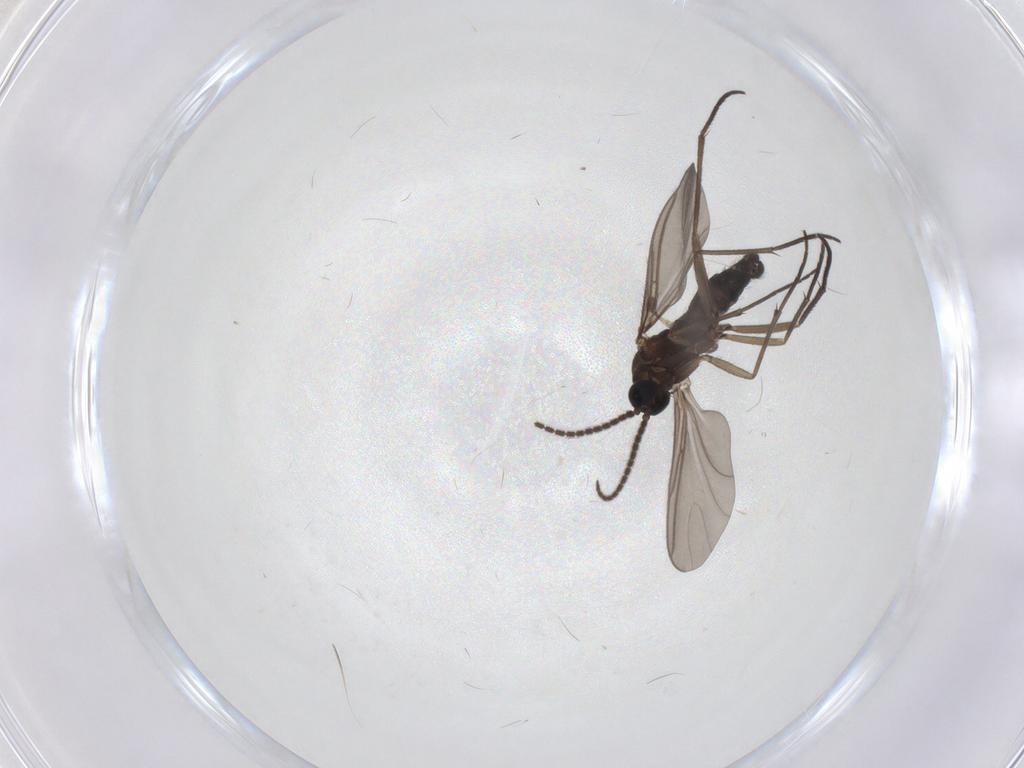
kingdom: Animalia
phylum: Arthropoda
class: Insecta
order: Diptera
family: Sciaridae
